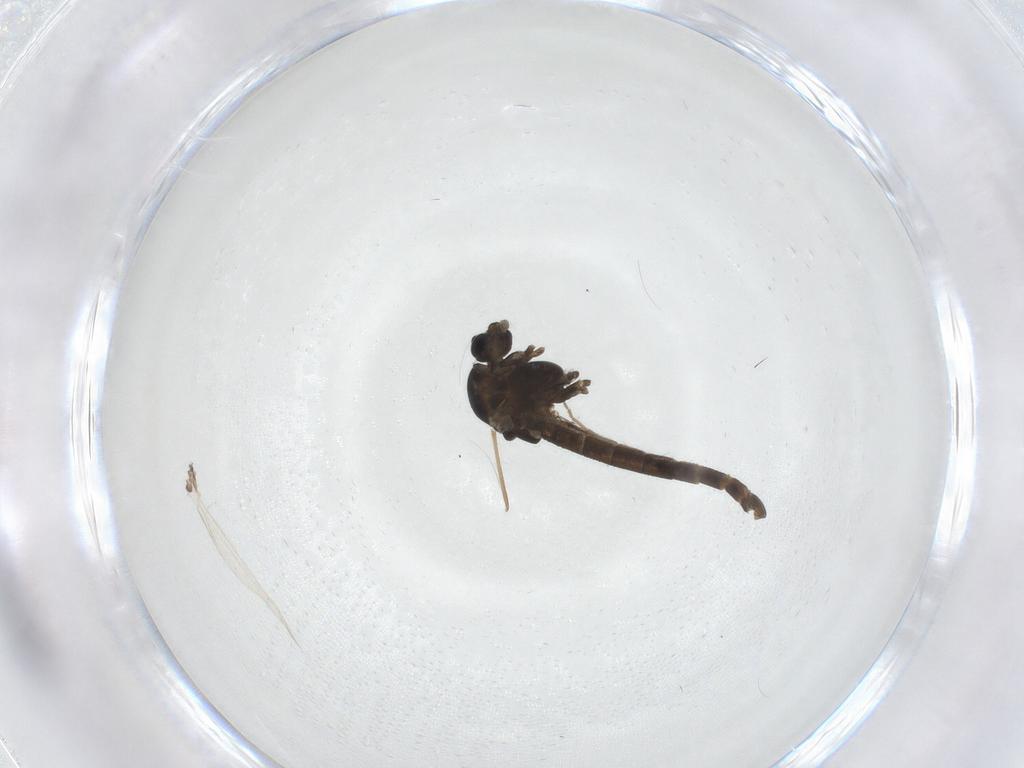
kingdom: Animalia
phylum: Arthropoda
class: Insecta
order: Diptera
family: Chironomidae
